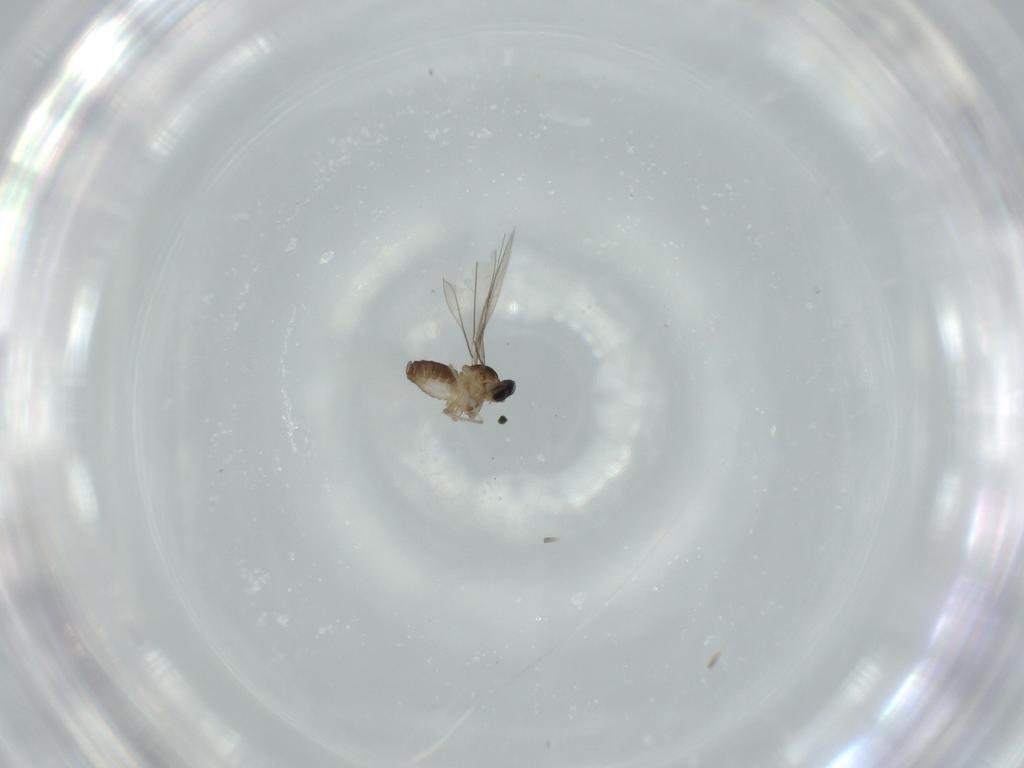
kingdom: Animalia
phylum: Arthropoda
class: Insecta
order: Diptera
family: Cecidomyiidae
